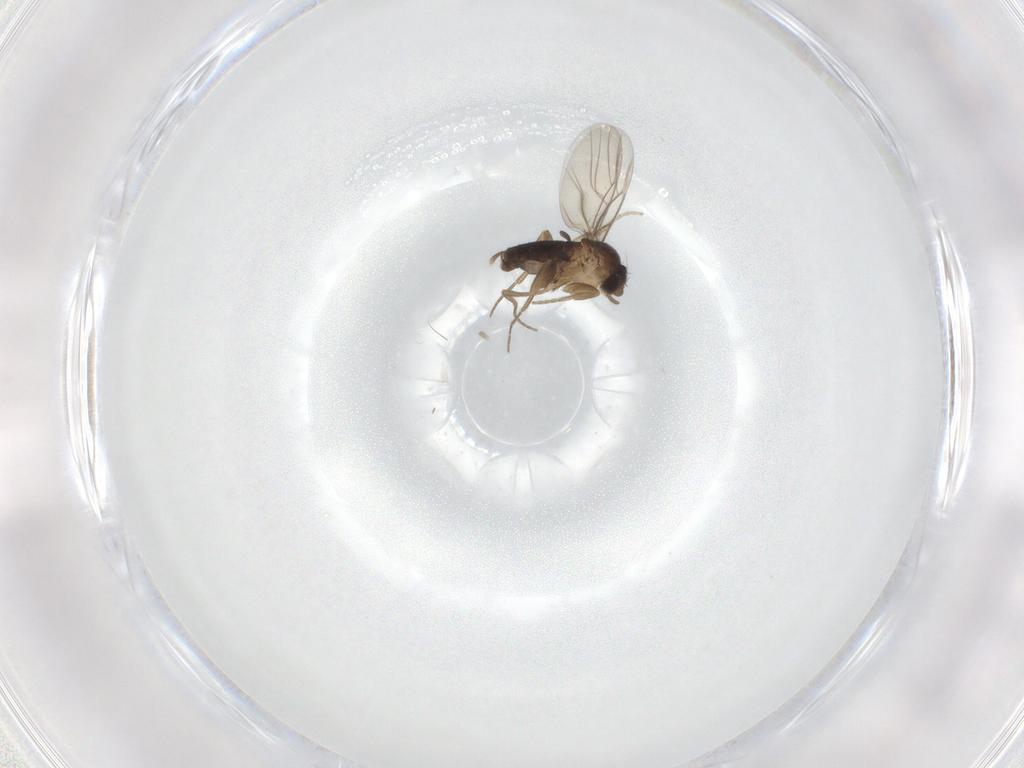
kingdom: Animalia
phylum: Arthropoda
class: Insecta
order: Diptera
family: Phoridae
